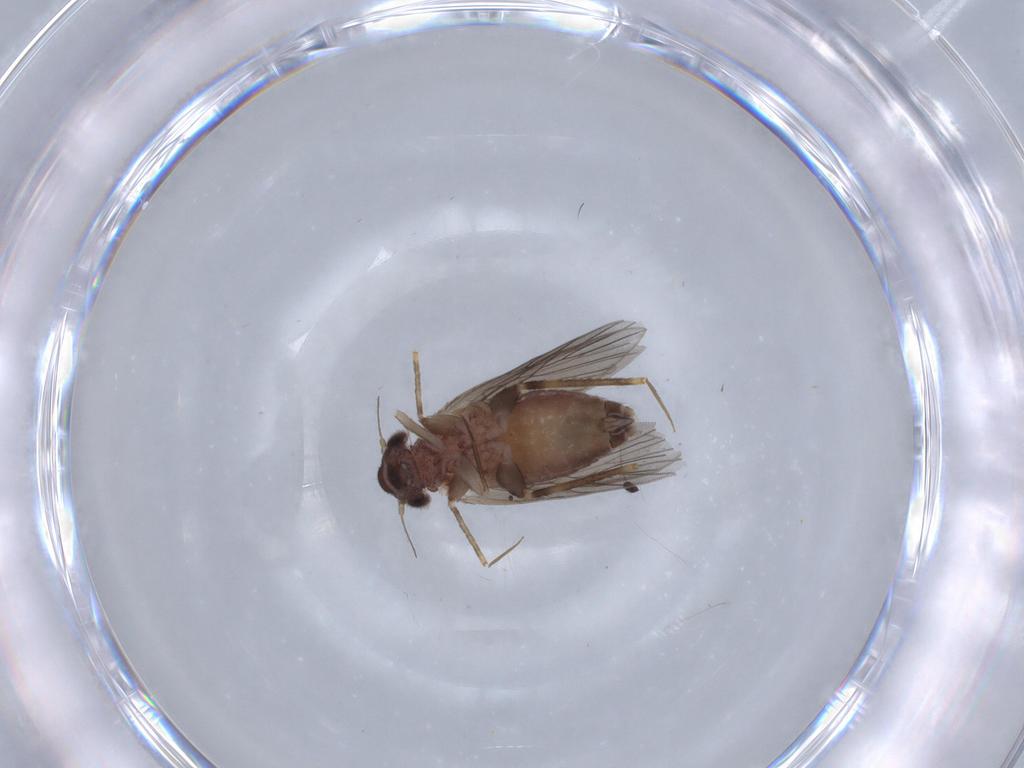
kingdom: Animalia
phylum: Arthropoda
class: Insecta
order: Psocodea
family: Lepidopsocidae
